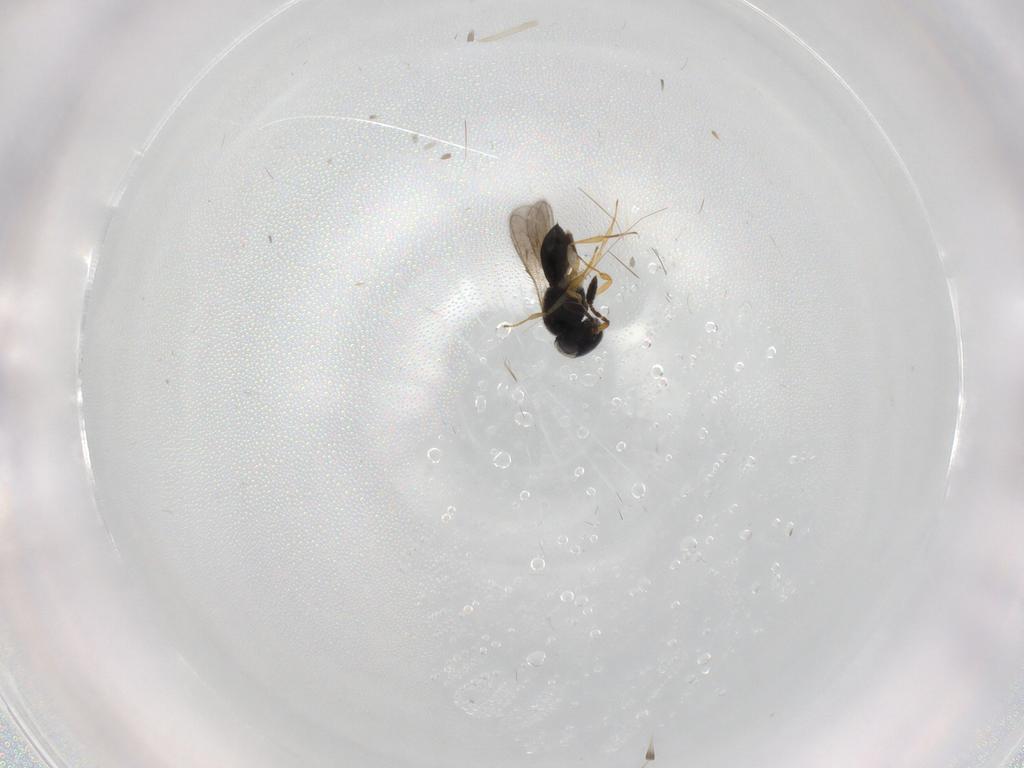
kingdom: Animalia
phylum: Arthropoda
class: Insecta
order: Hymenoptera
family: Scelionidae
